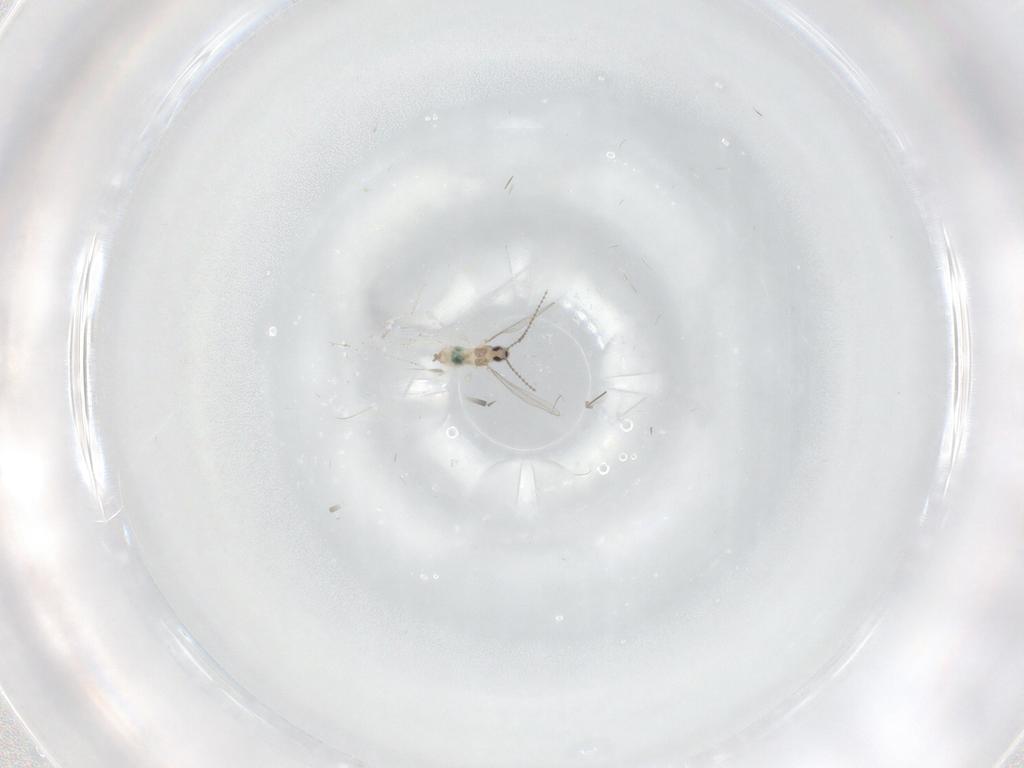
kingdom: Animalia
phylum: Arthropoda
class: Insecta
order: Diptera
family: Cecidomyiidae
